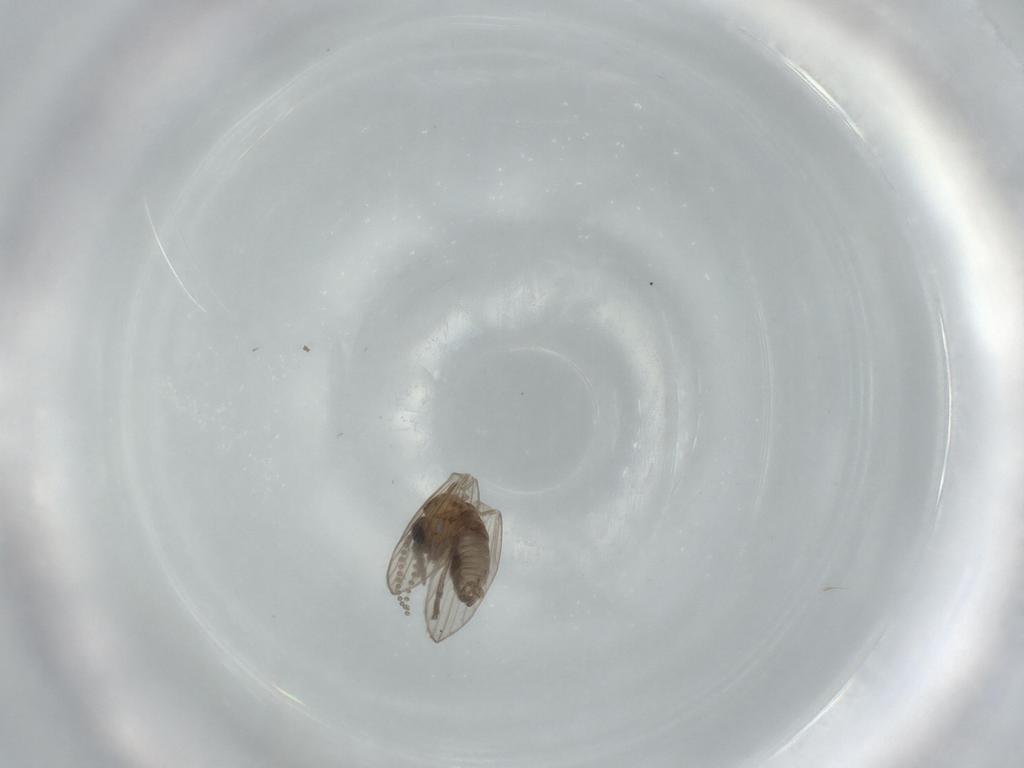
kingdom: Animalia
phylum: Arthropoda
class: Insecta
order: Diptera
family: Psychodidae
